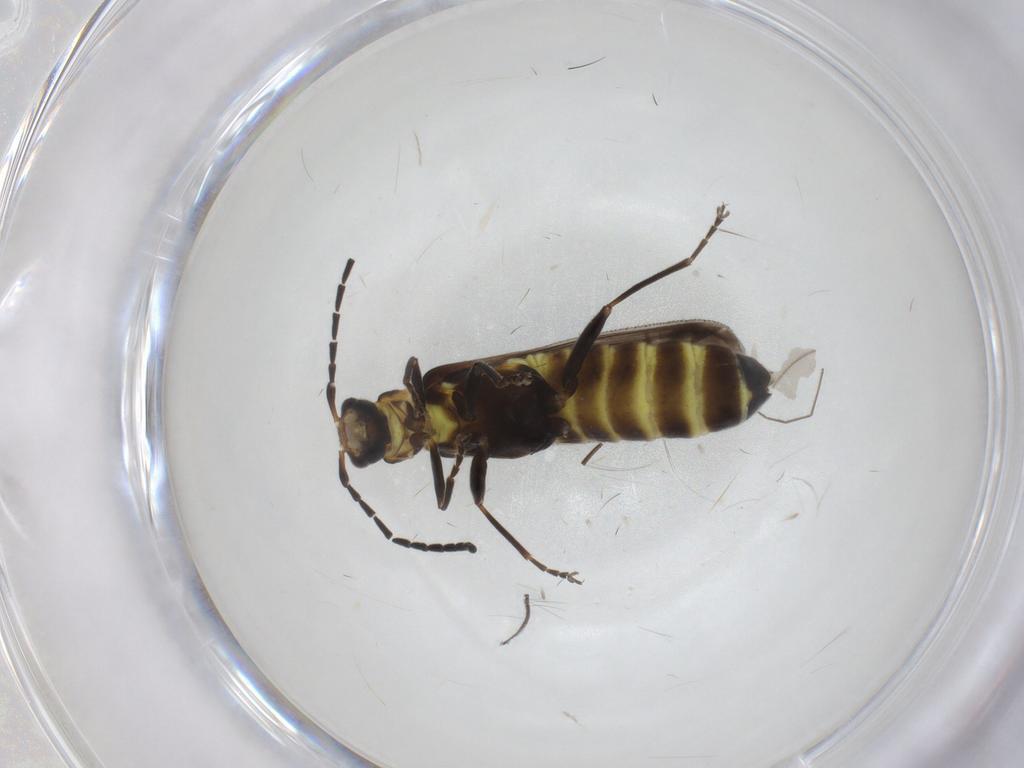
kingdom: Animalia
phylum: Arthropoda
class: Insecta
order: Coleoptera
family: Cantharidae
